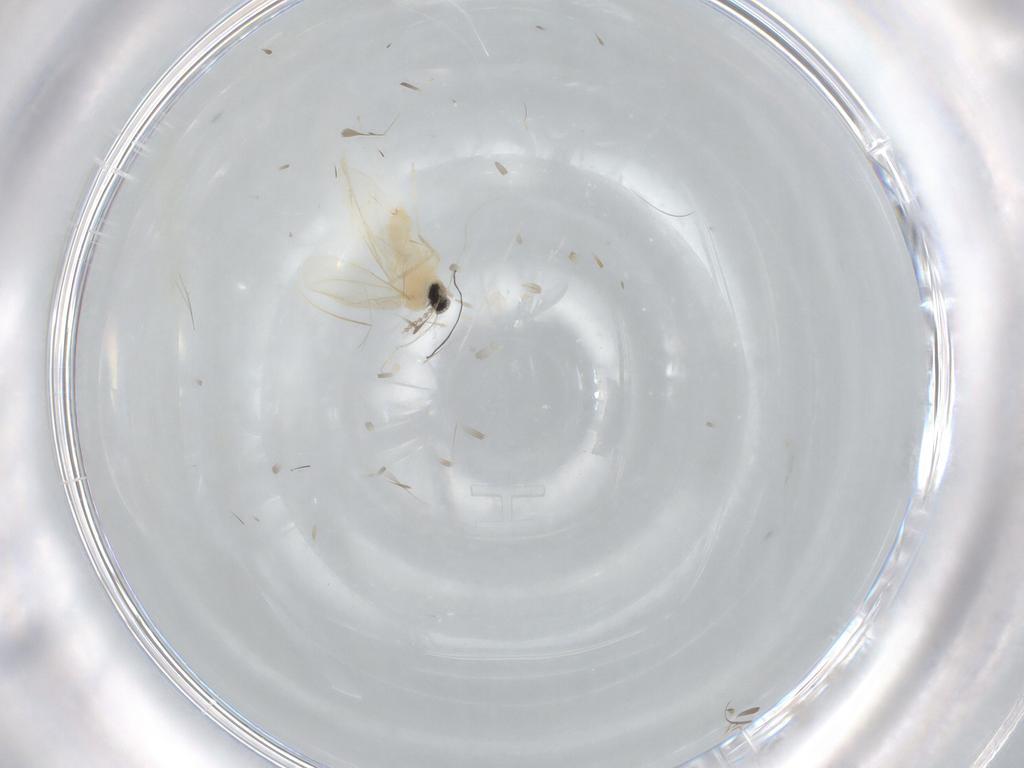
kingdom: Animalia
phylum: Arthropoda
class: Insecta
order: Diptera
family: Cecidomyiidae
